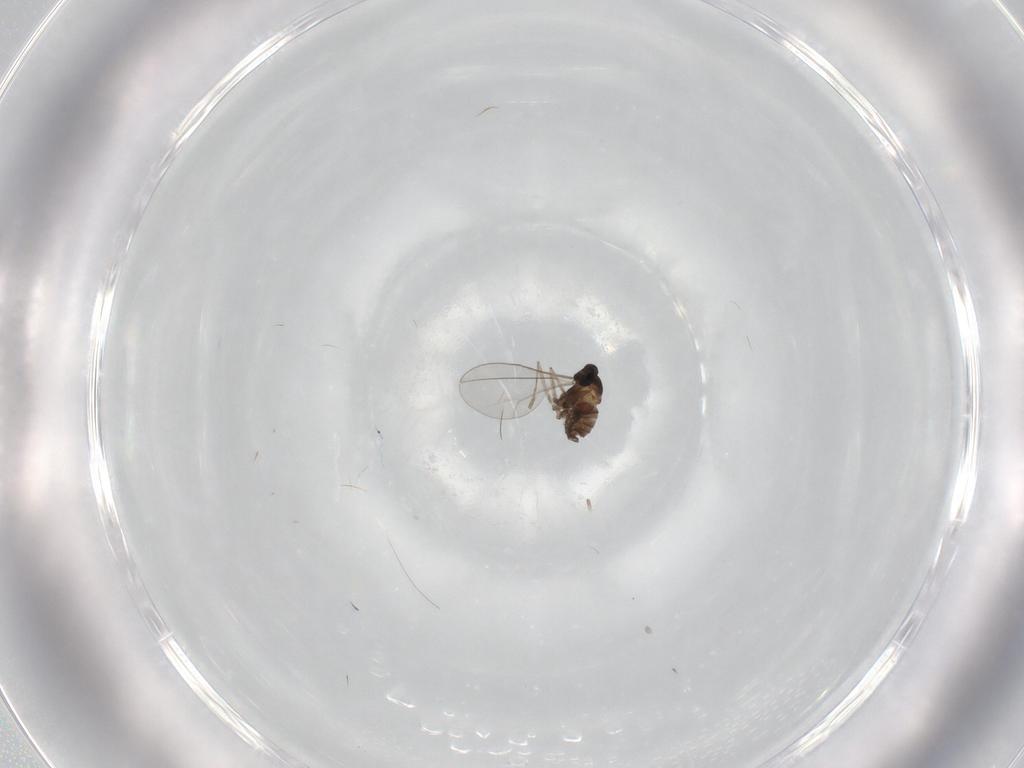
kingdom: Animalia
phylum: Arthropoda
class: Insecta
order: Diptera
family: Cecidomyiidae
